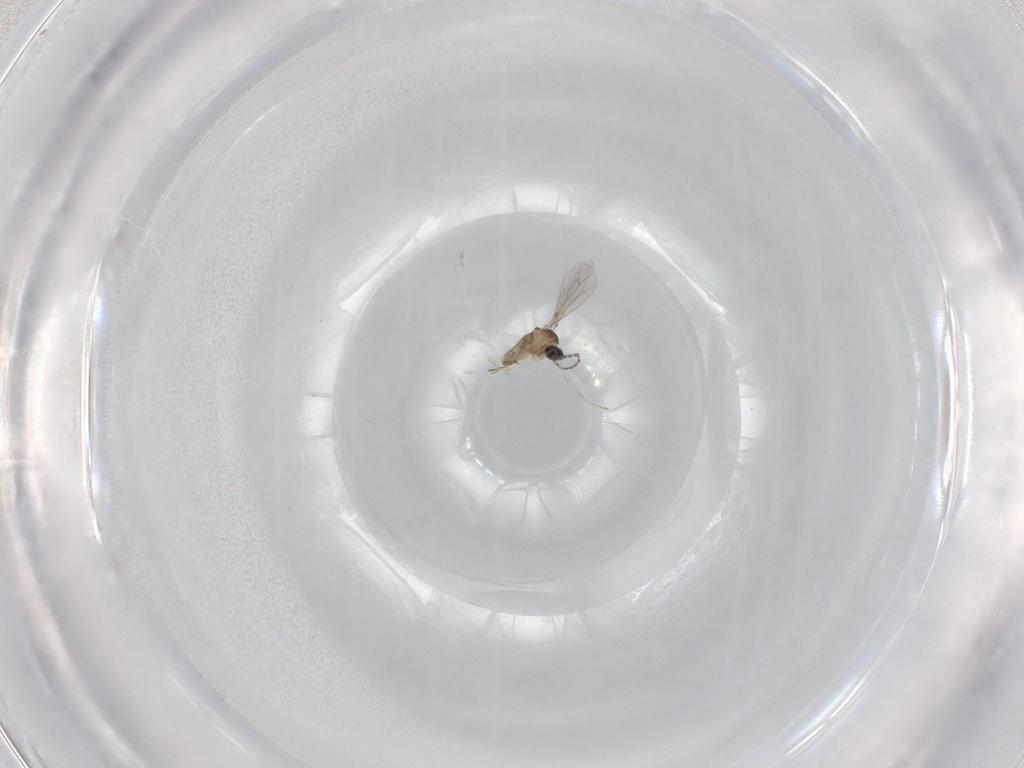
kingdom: Animalia
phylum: Arthropoda
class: Insecta
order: Diptera
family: Cecidomyiidae
